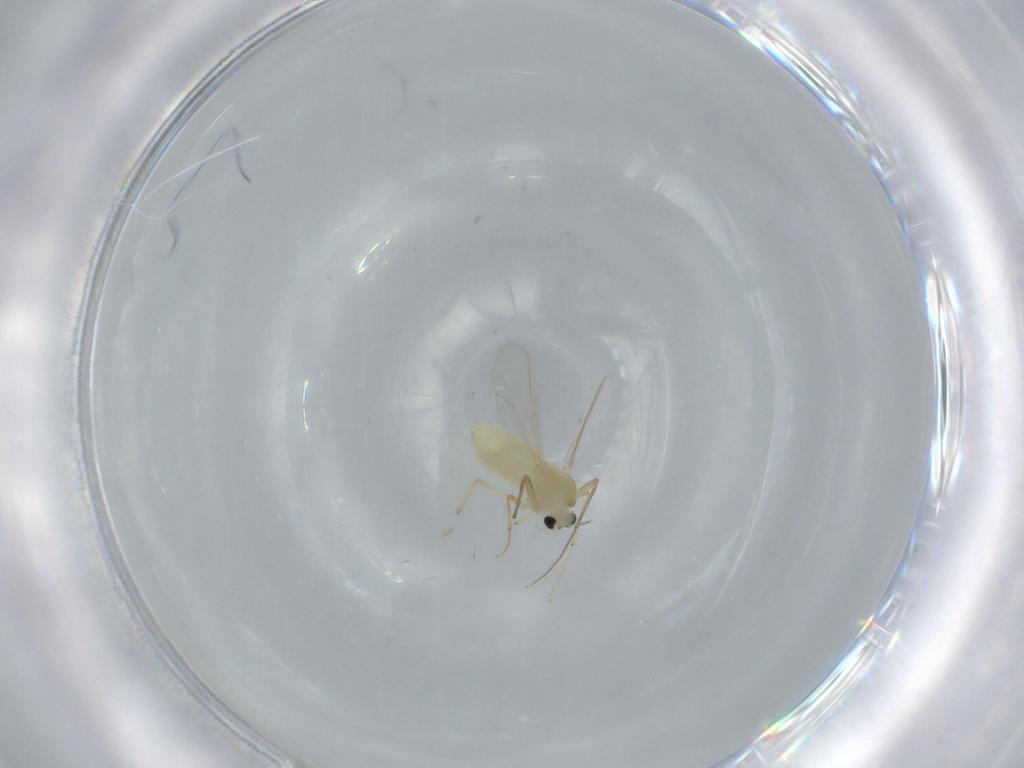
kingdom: Animalia
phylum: Arthropoda
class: Insecta
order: Diptera
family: Chironomidae
